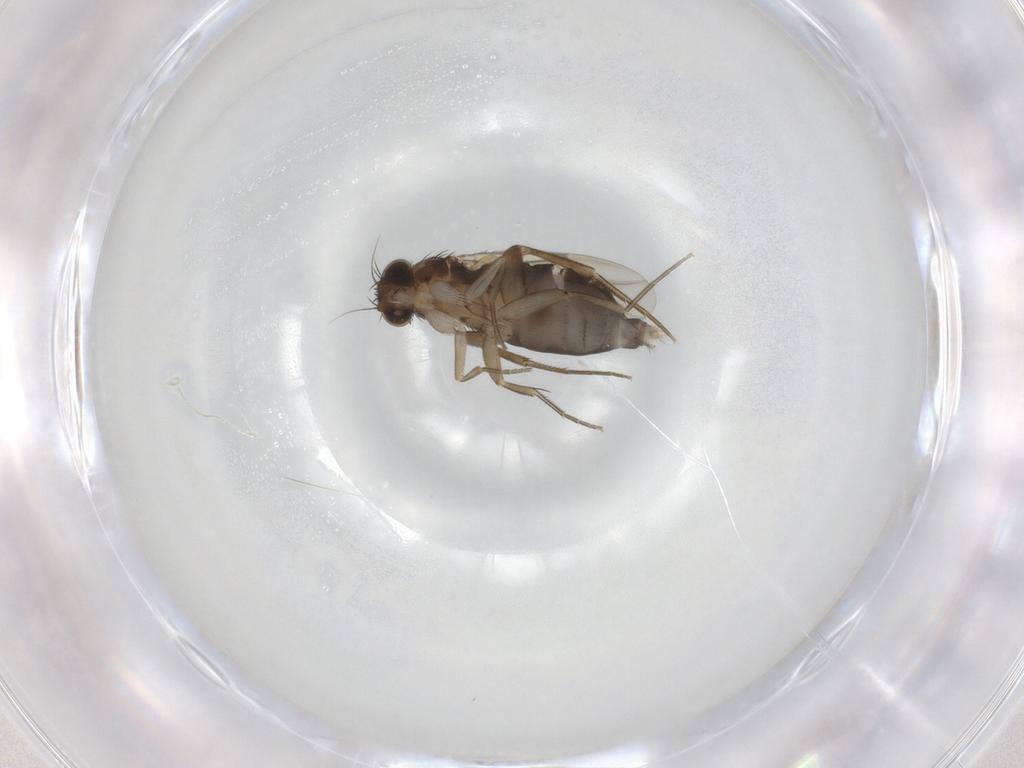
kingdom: Animalia
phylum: Arthropoda
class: Insecta
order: Diptera
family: Phoridae
